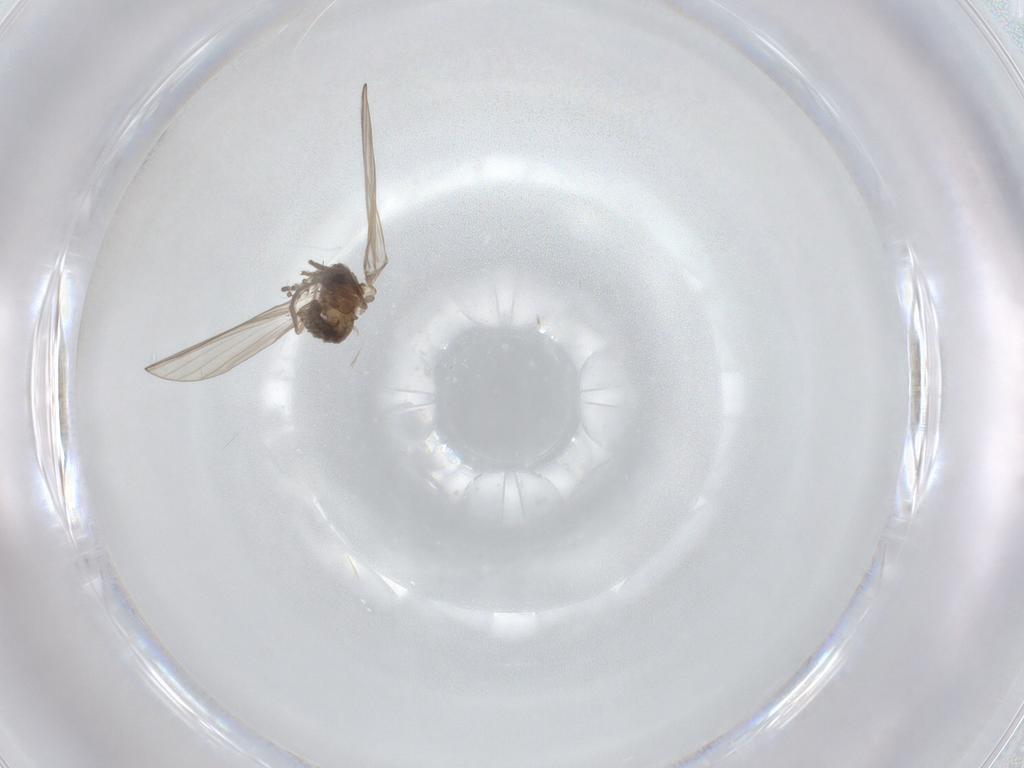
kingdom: Animalia
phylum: Arthropoda
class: Insecta
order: Diptera
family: Psychodidae
